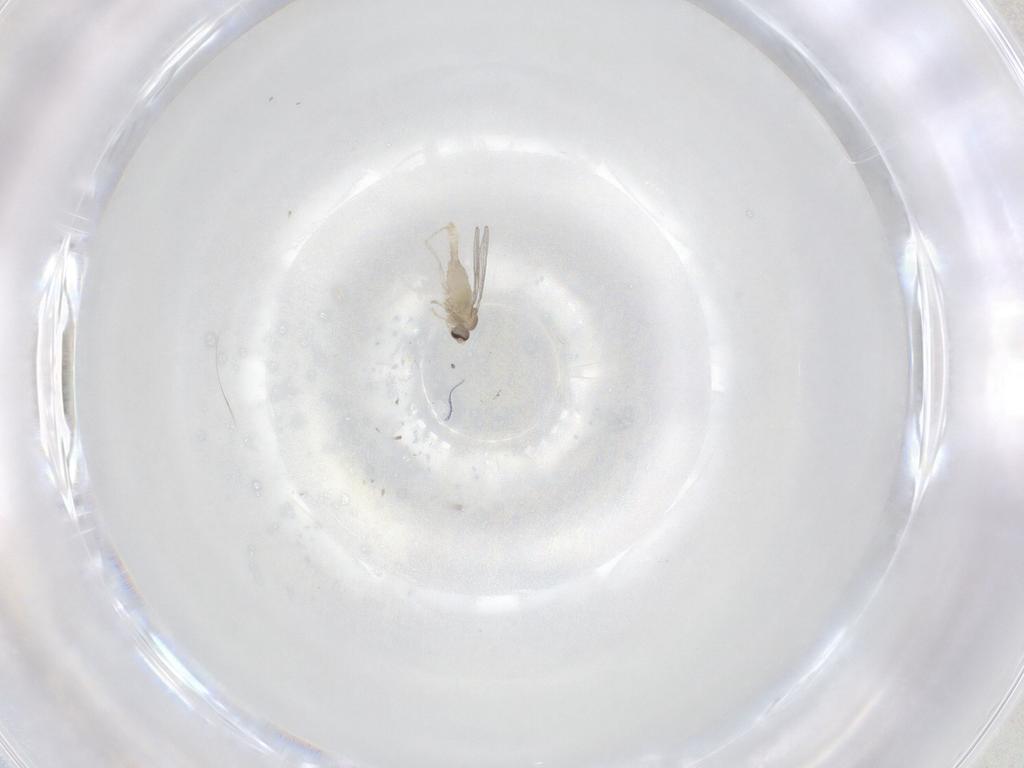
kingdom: Animalia
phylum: Arthropoda
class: Insecta
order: Diptera
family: Cecidomyiidae
